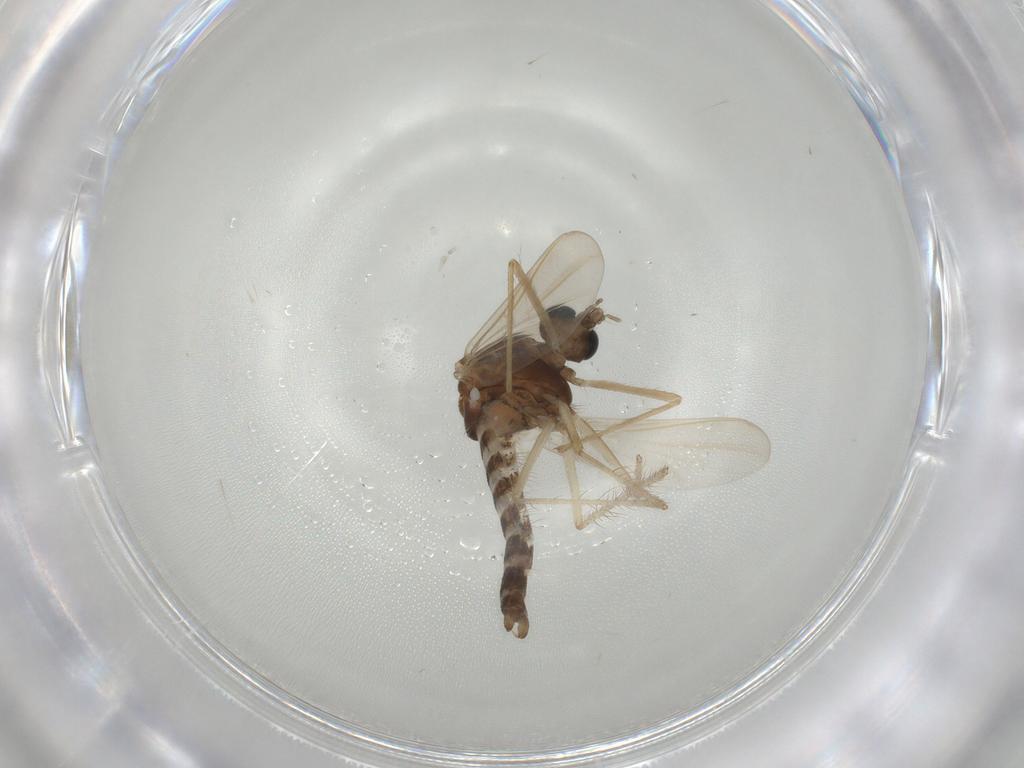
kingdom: Animalia
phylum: Arthropoda
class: Insecta
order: Diptera
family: Chironomidae
